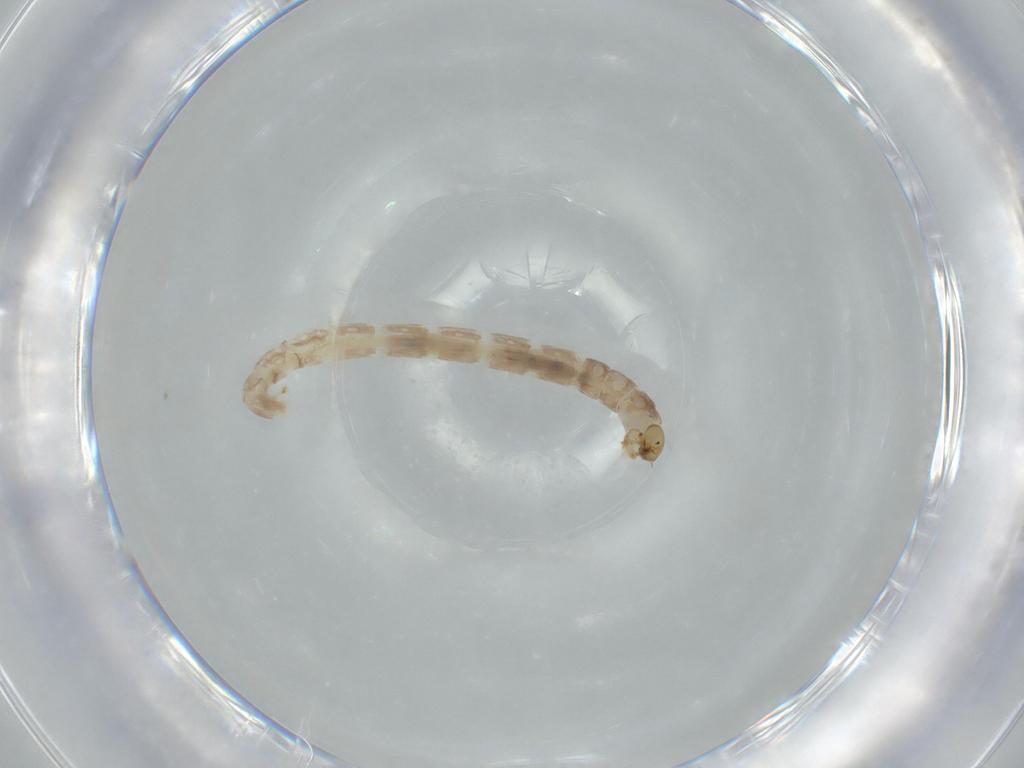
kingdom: Animalia
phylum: Arthropoda
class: Insecta
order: Diptera
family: Chironomidae
